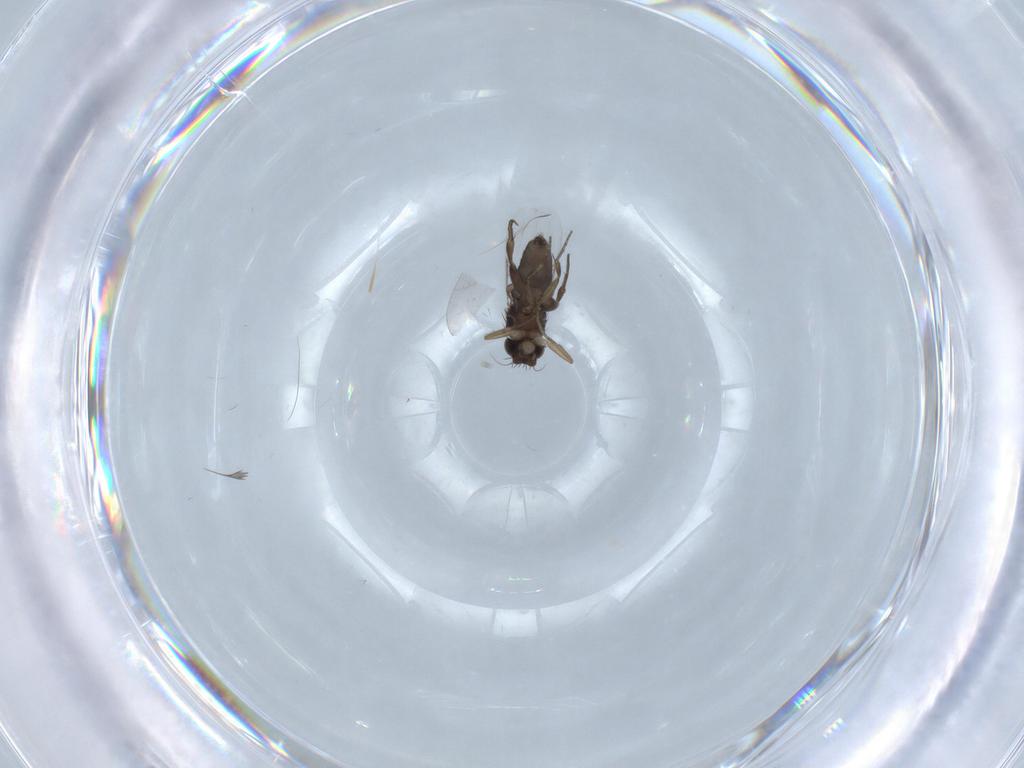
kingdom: Animalia
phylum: Arthropoda
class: Insecta
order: Diptera
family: Phoridae
